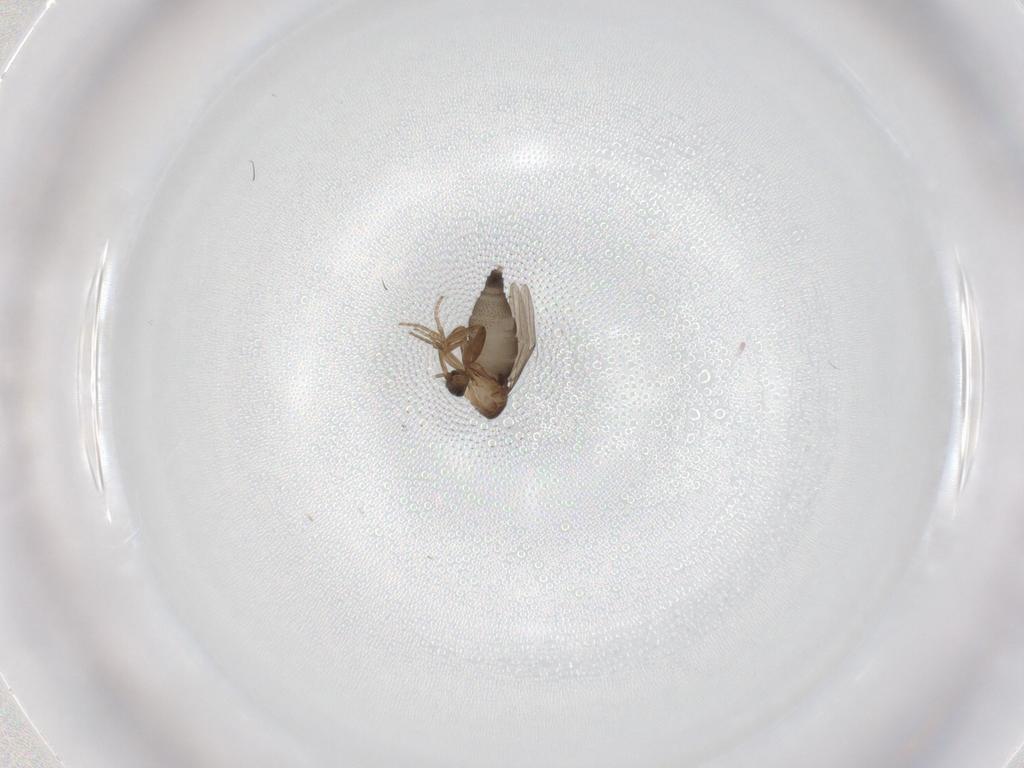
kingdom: Animalia
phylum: Arthropoda
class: Insecta
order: Diptera
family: Phoridae
